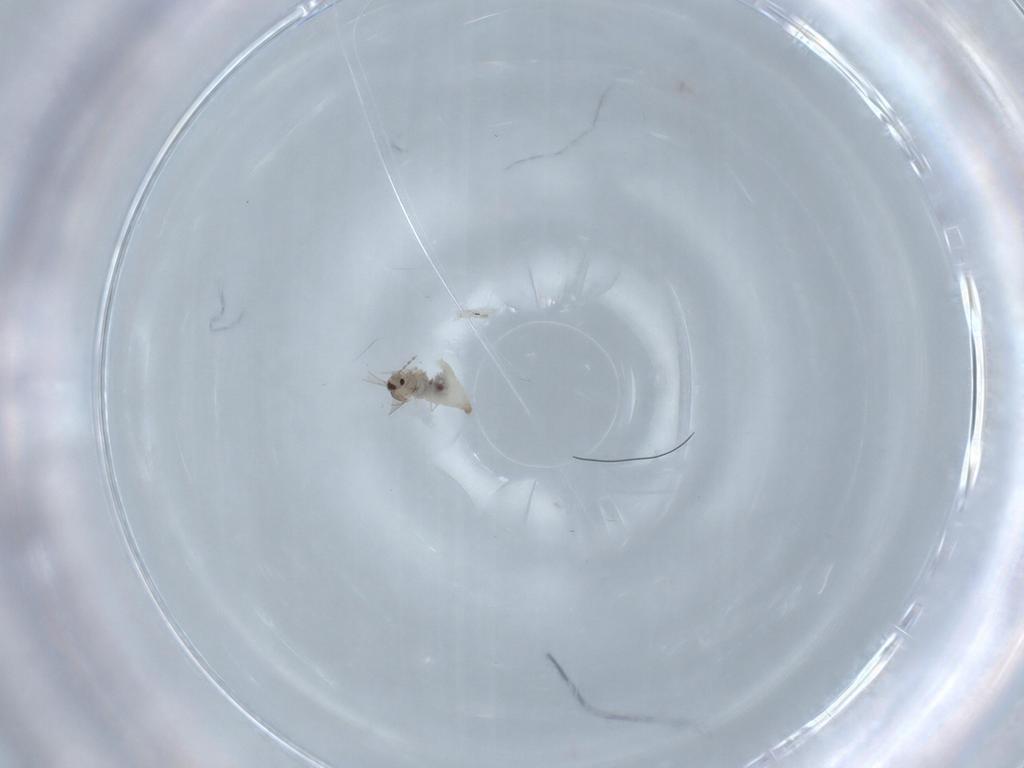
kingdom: Animalia
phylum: Arthropoda
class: Insecta
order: Diptera
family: Cecidomyiidae
